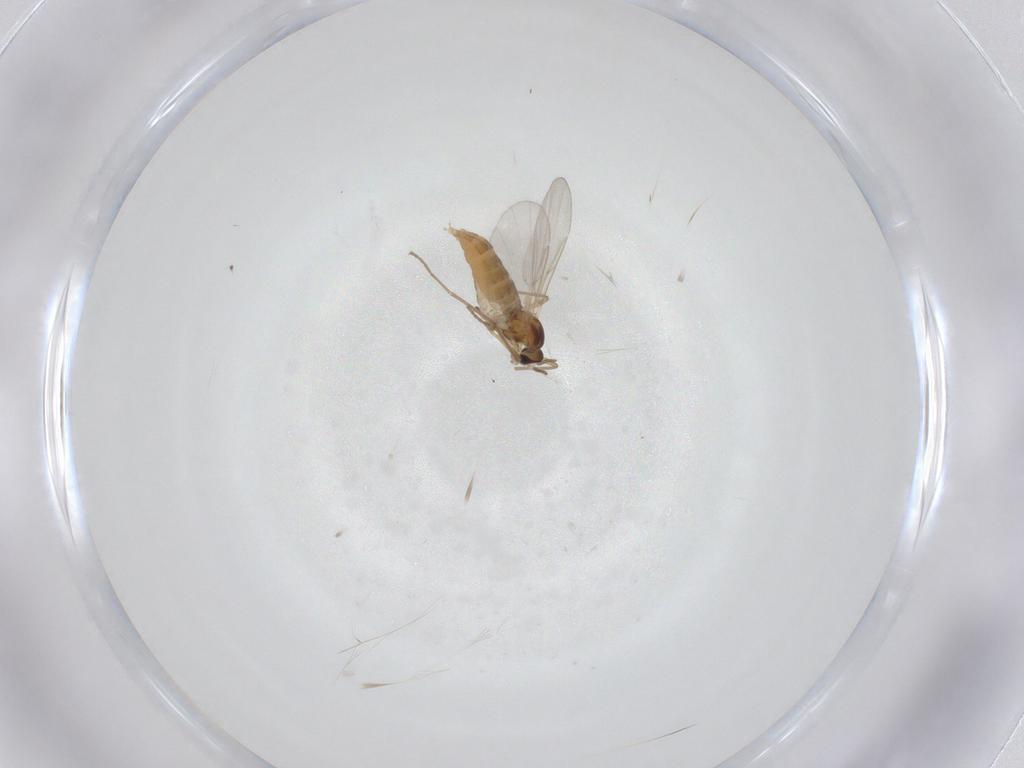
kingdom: Animalia
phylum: Arthropoda
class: Insecta
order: Diptera
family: Cecidomyiidae
